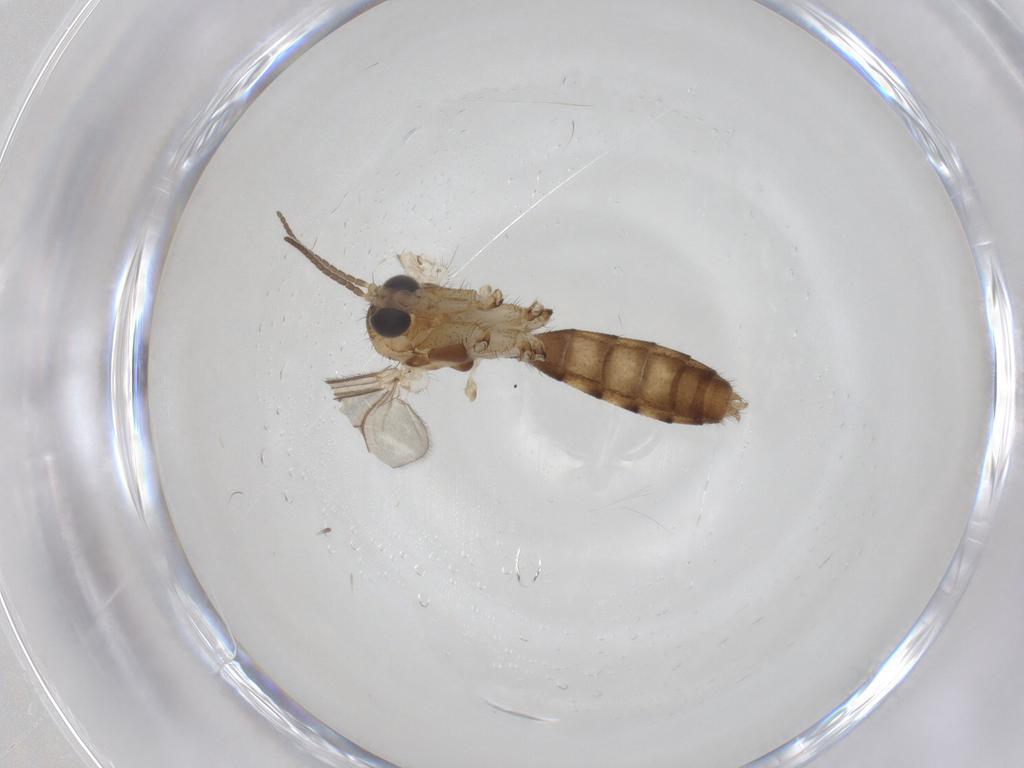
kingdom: Animalia
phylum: Arthropoda
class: Insecta
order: Diptera
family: Mycetophilidae
